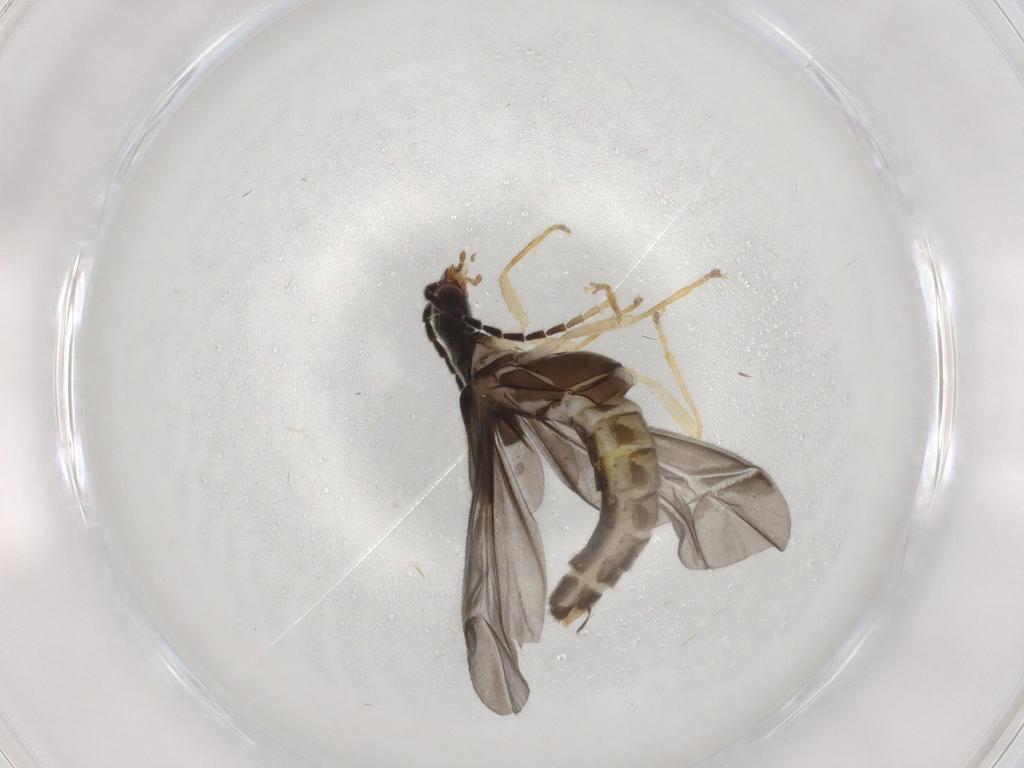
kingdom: Animalia
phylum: Arthropoda
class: Insecta
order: Coleoptera
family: Cantharidae
